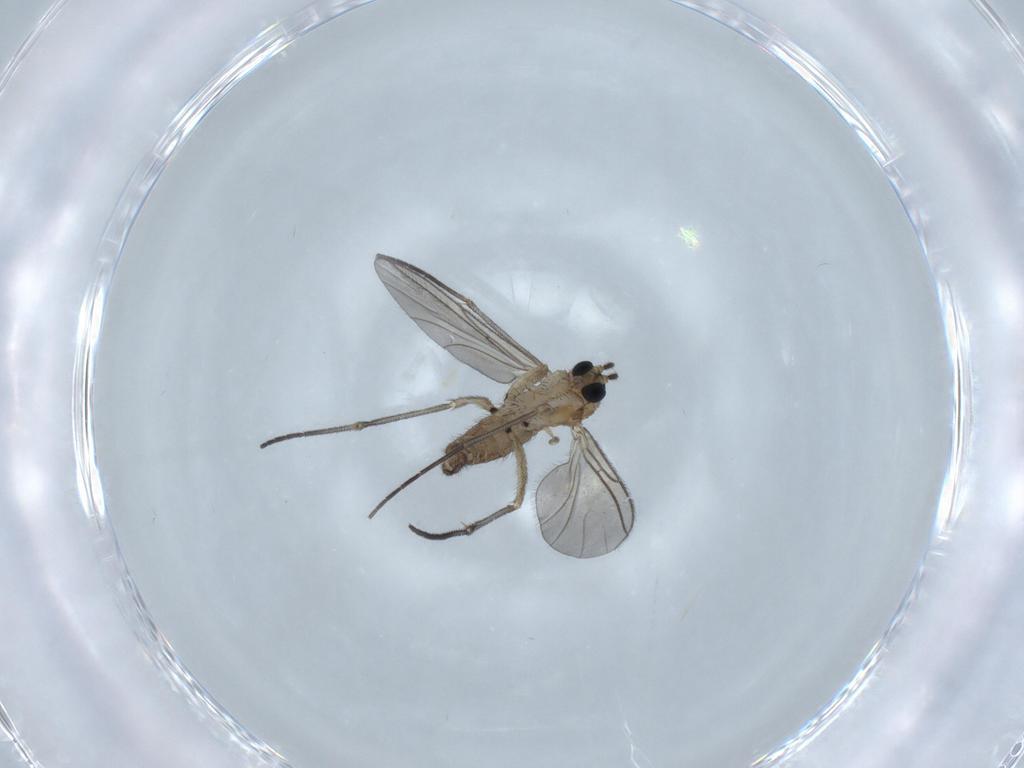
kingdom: Animalia
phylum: Arthropoda
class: Insecta
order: Diptera
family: Sciaridae
